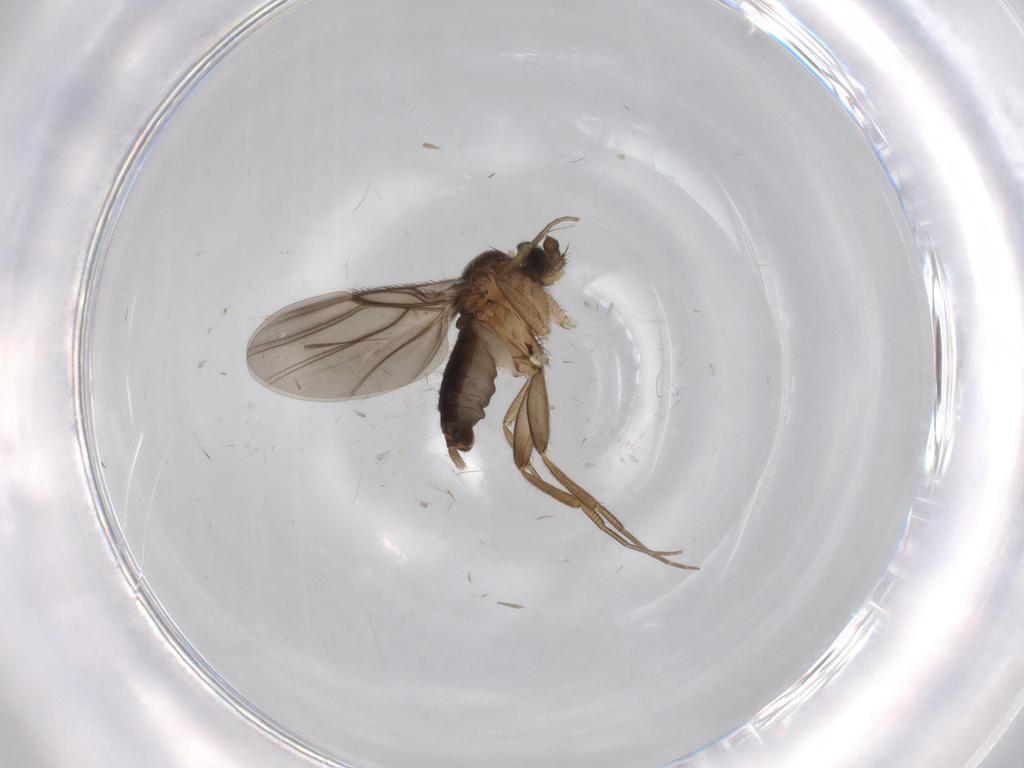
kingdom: Animalia
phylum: Arthropoda
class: Insecta
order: Diptera
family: Phoridae
